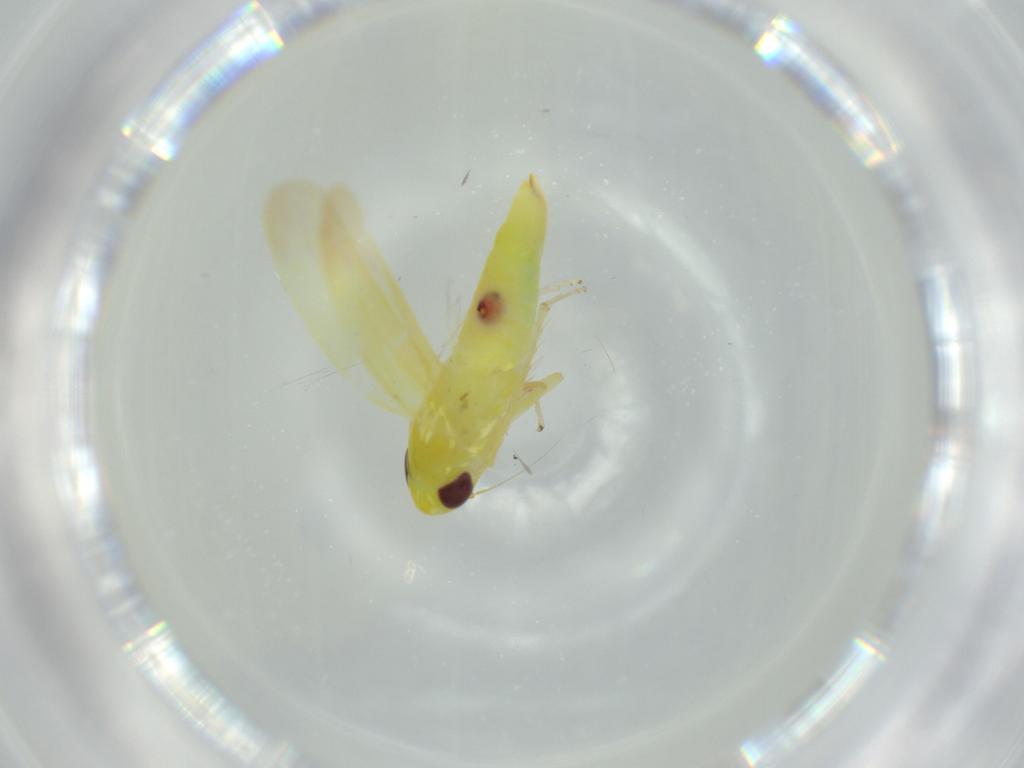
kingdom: Animalia
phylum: Arthropoda
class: Insecta
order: Hemiptera
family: Cicadellidae
